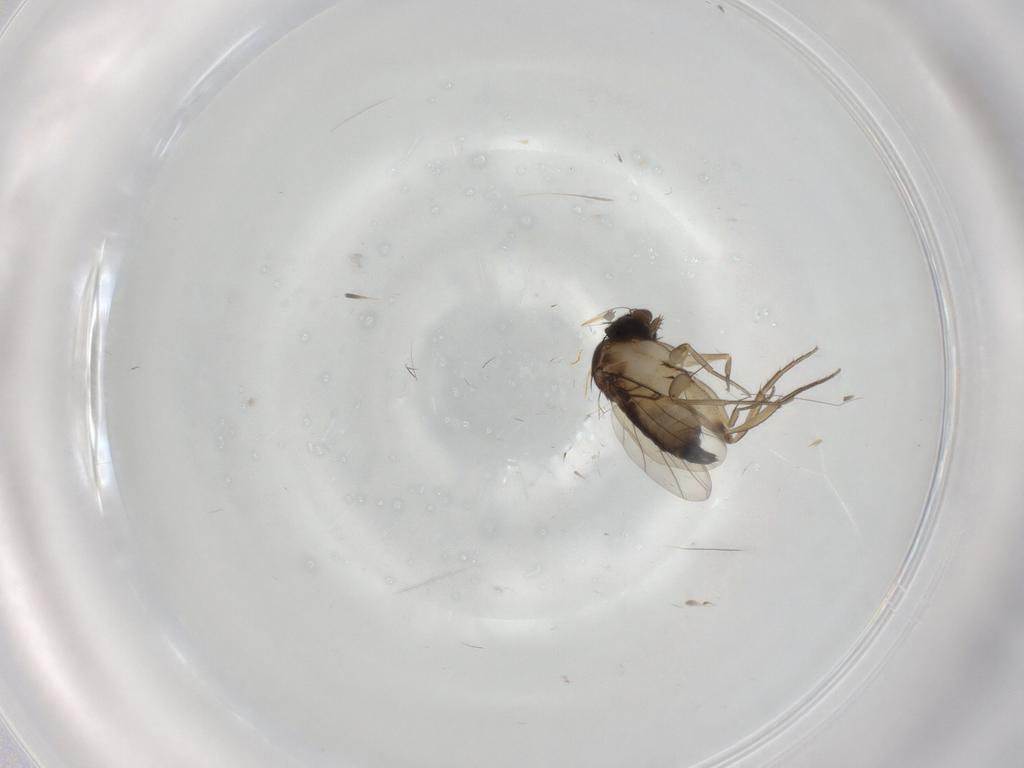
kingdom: Animalia
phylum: Arthropoda
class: Insecta
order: Diptera
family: Phoridae
